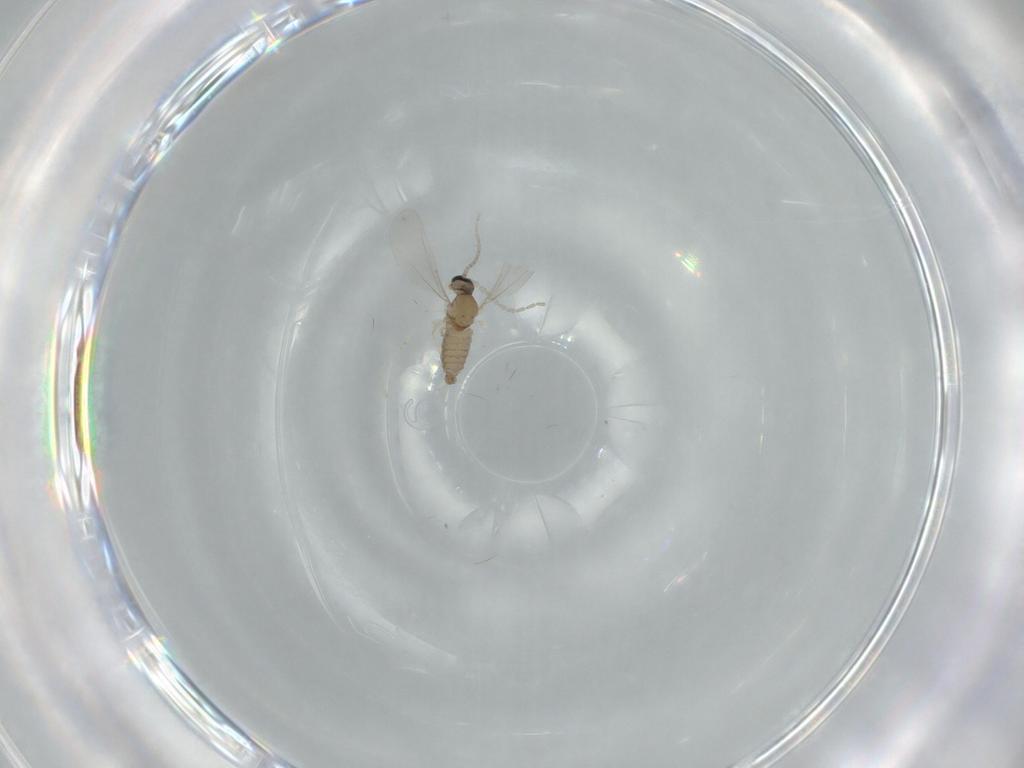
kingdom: Animalia
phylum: Arthropoda
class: Insecta
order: Diptera
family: Cecidomyiidae
